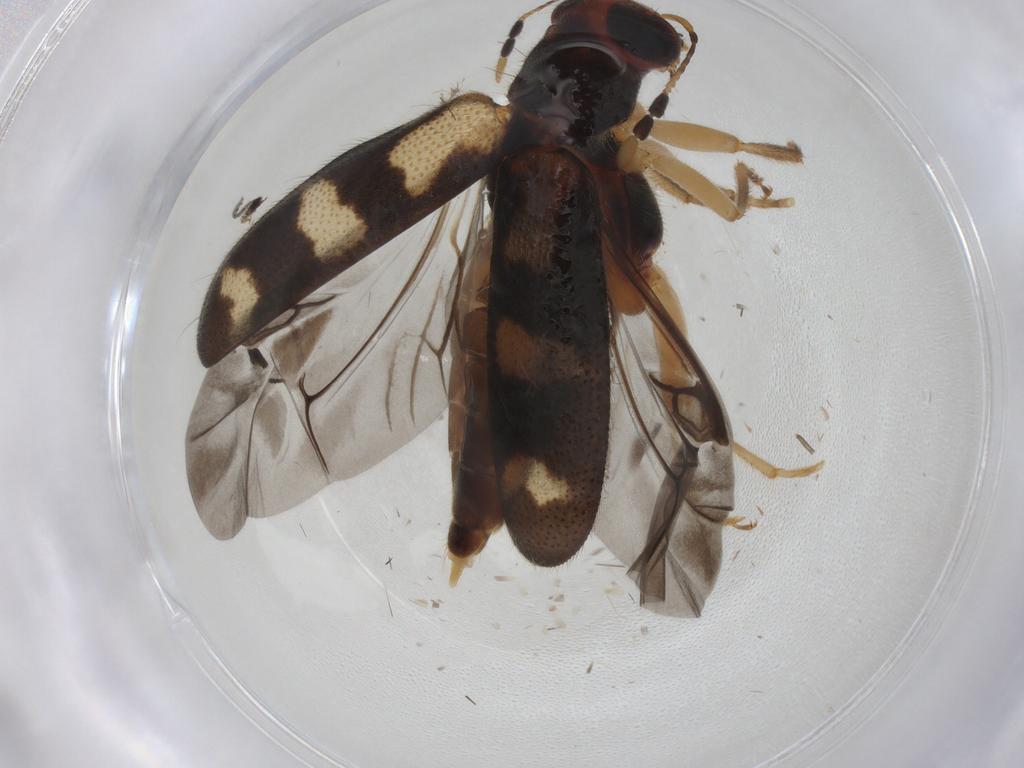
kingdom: Animalia
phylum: Arthropoda
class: Insecta
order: Coleoptera
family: Cleridae
